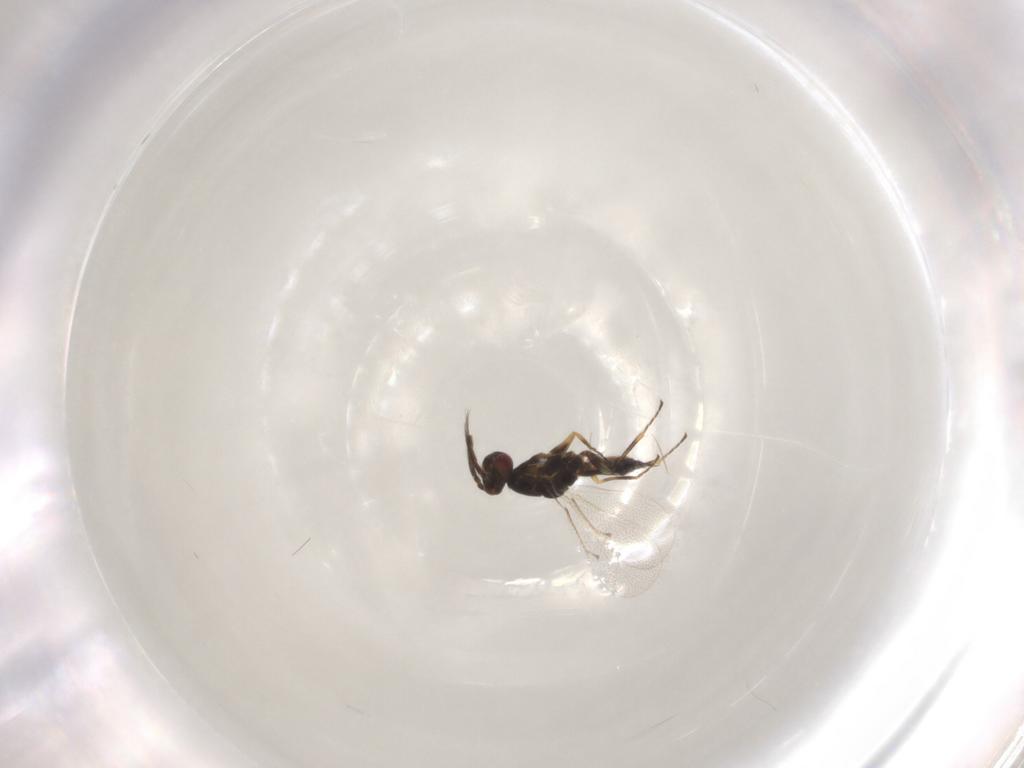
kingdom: Animalia
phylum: Arthropoda
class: Insecta
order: Hymenoptera
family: Eulophidae
